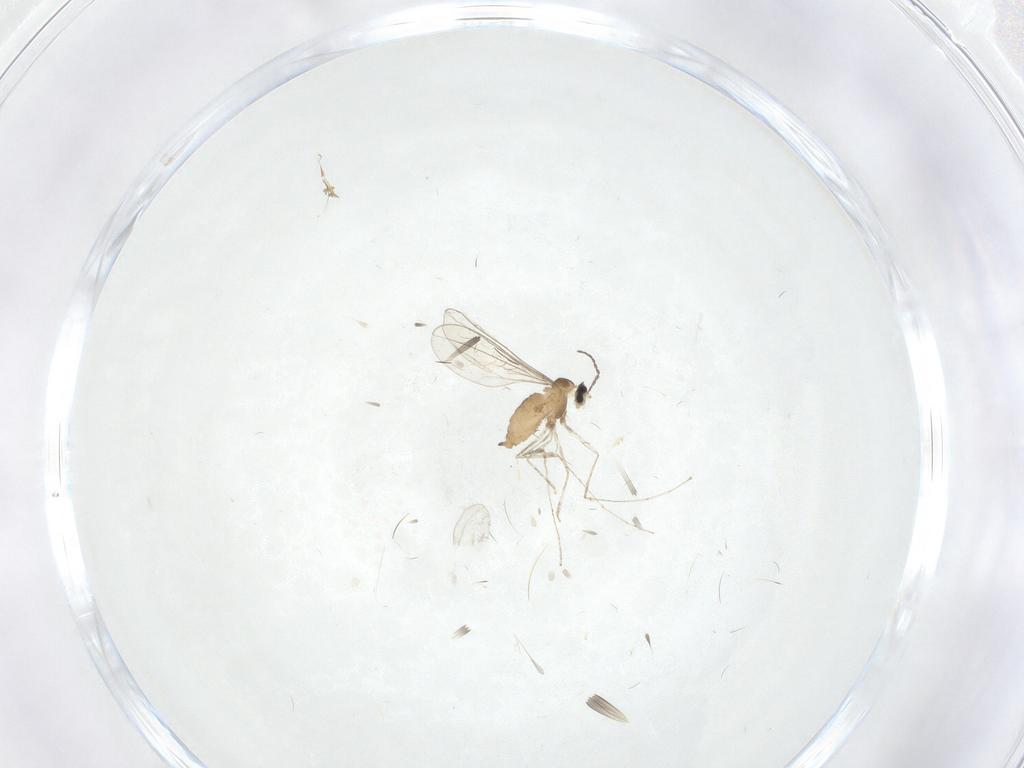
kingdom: Animalia
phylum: Arthropoda
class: Insecta
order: Diptera
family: Cecidomyiidae
